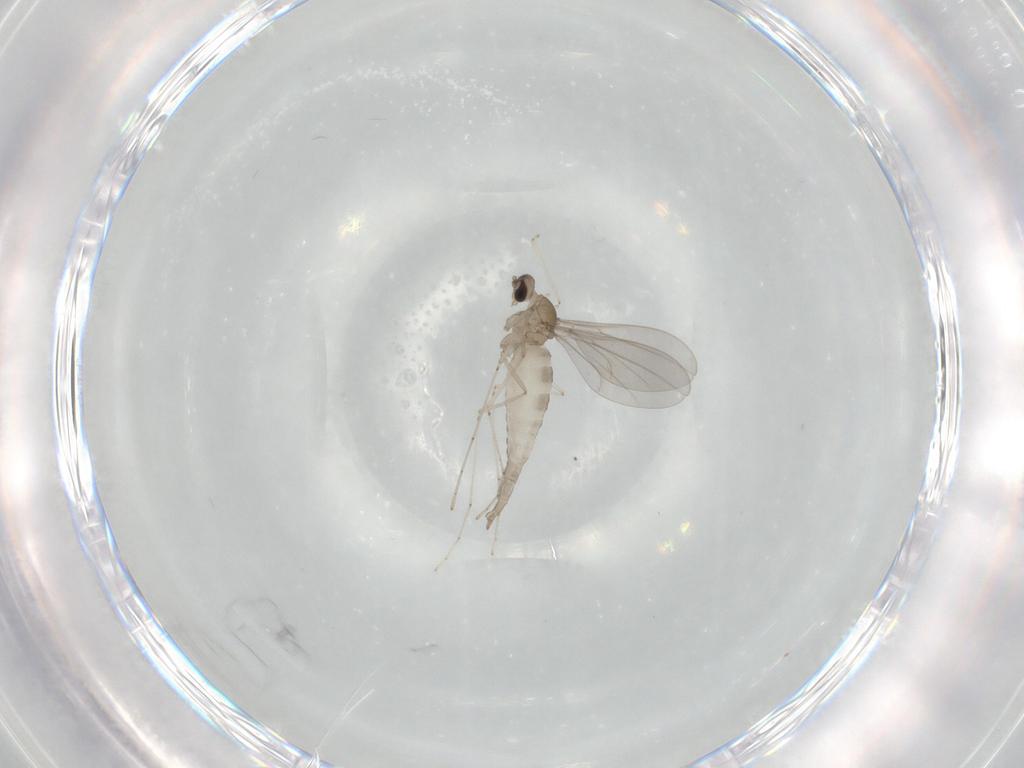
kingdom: Animalia
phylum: Arthropoda
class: Insecta
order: Diptera
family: Cecidomyiidae
